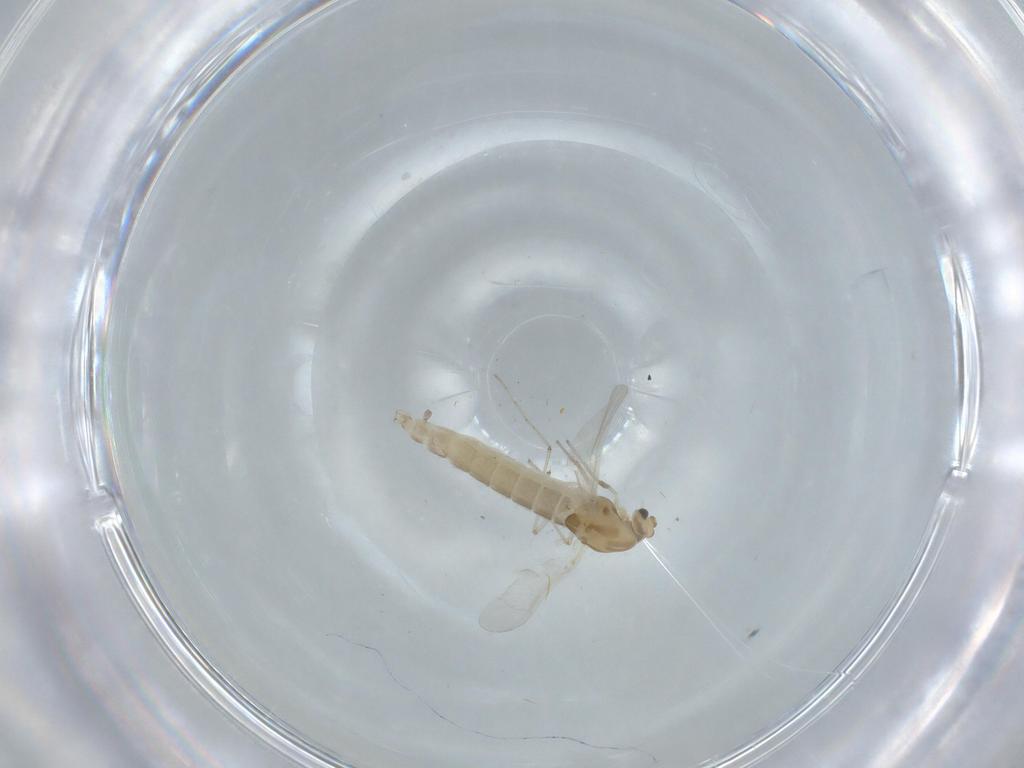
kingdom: Animalia
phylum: Arthropoda
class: Insecta
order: Diptera
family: Chironomidae
